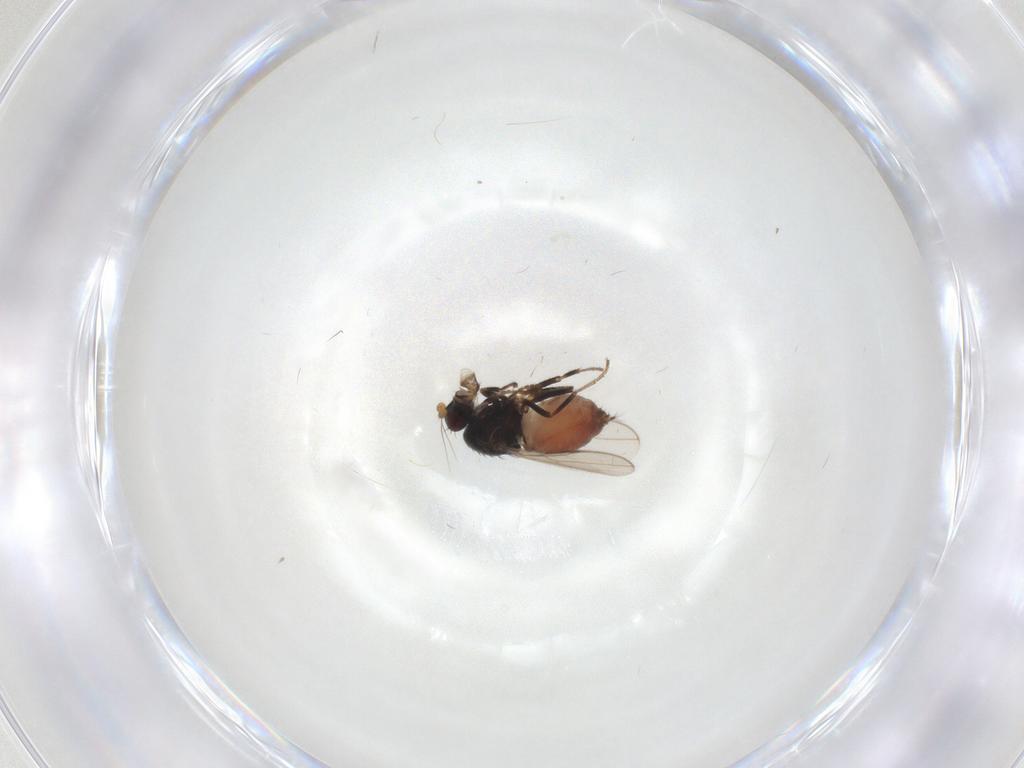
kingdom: Animalia
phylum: Arthropoda
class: Insecta
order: Diptera
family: Sphaeroceridae
